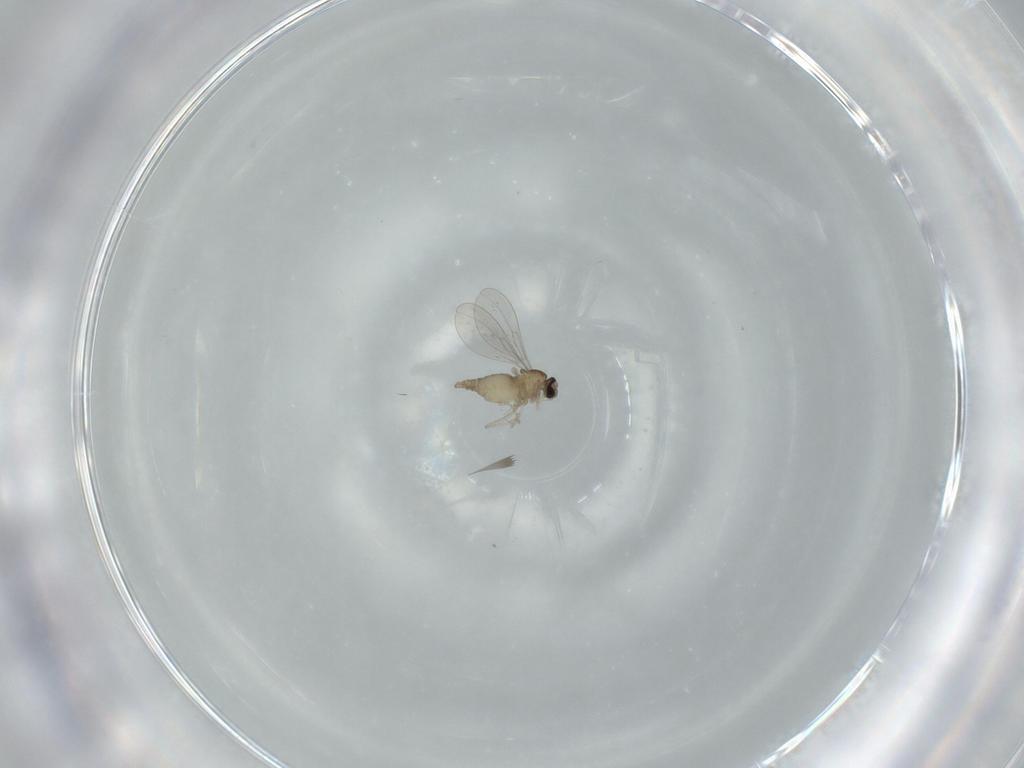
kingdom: Animalia
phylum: Arthropoda
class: Insecta
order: Diptera
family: Cecidomyiidae
